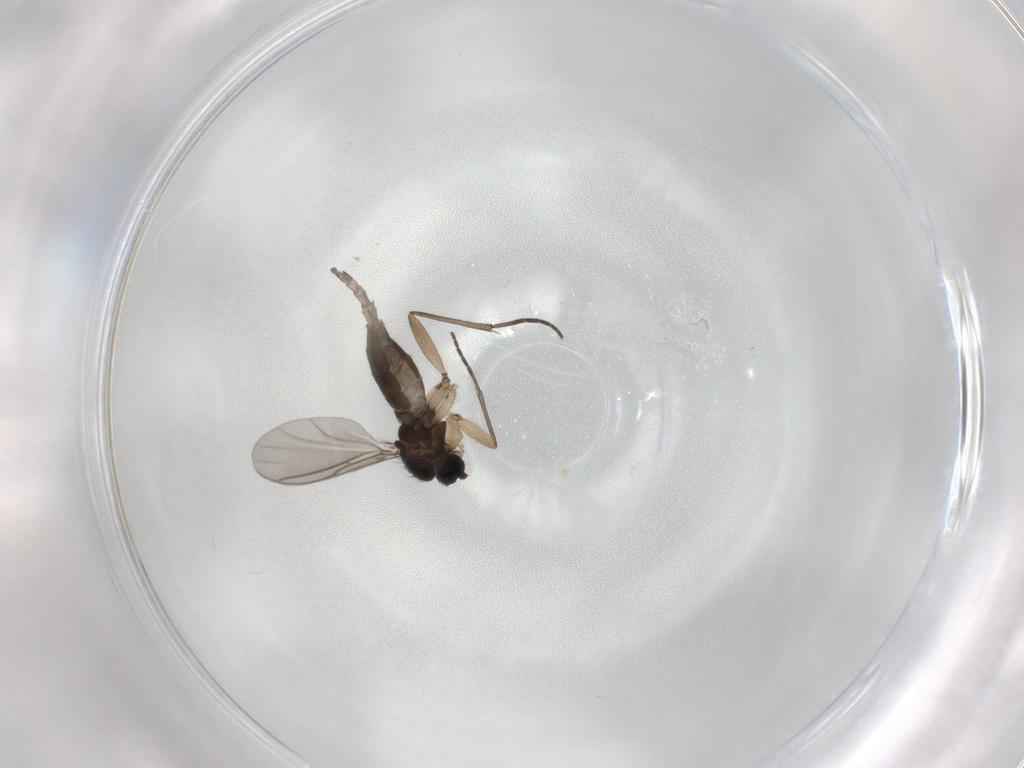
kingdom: Animalia
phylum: Arthropoda
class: Insecta
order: Diptera
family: Sciaridae
